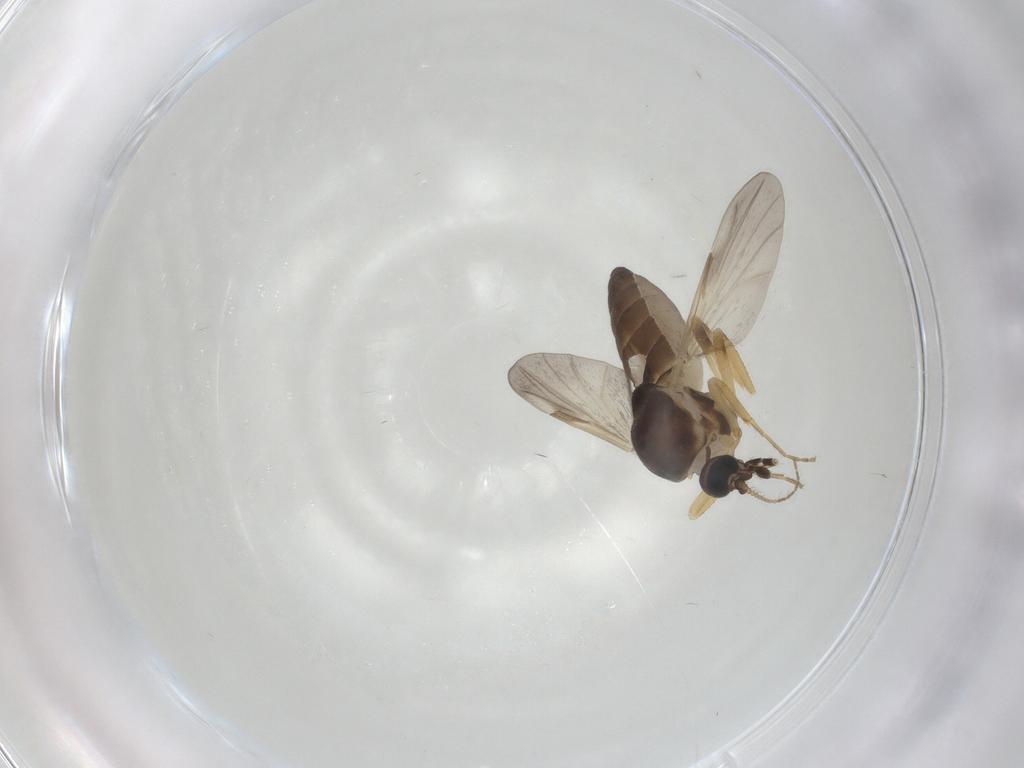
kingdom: Animalia
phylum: Arthropoda
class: Insecta
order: Diptera
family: Ceratopogonidae
